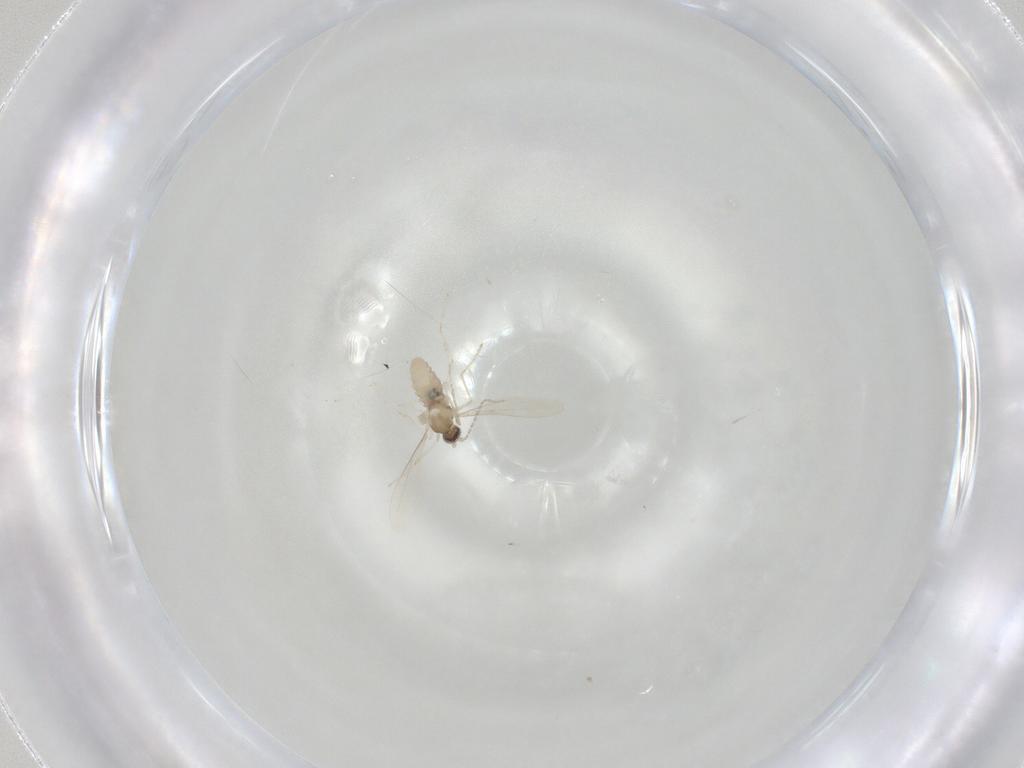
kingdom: Animalia
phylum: Arthropoda
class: Insecta
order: Diptera
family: Cecidomyiidae
